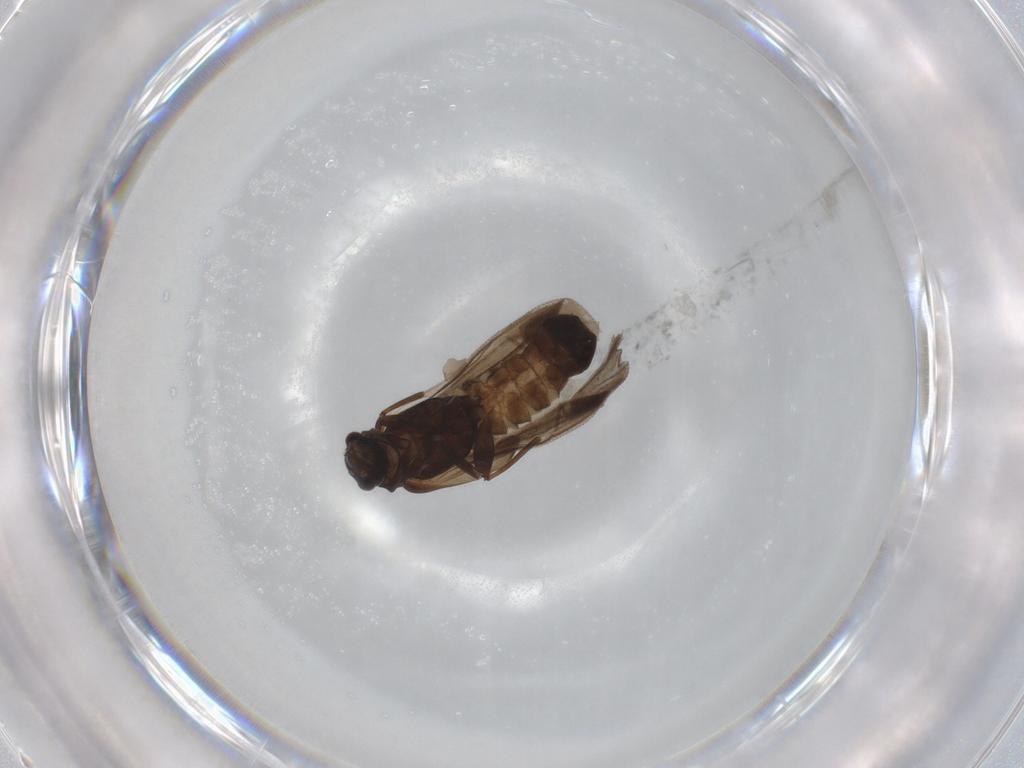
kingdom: Animalia
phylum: Arthropoda
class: Insecta
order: Coleoptera
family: Cantharidae
